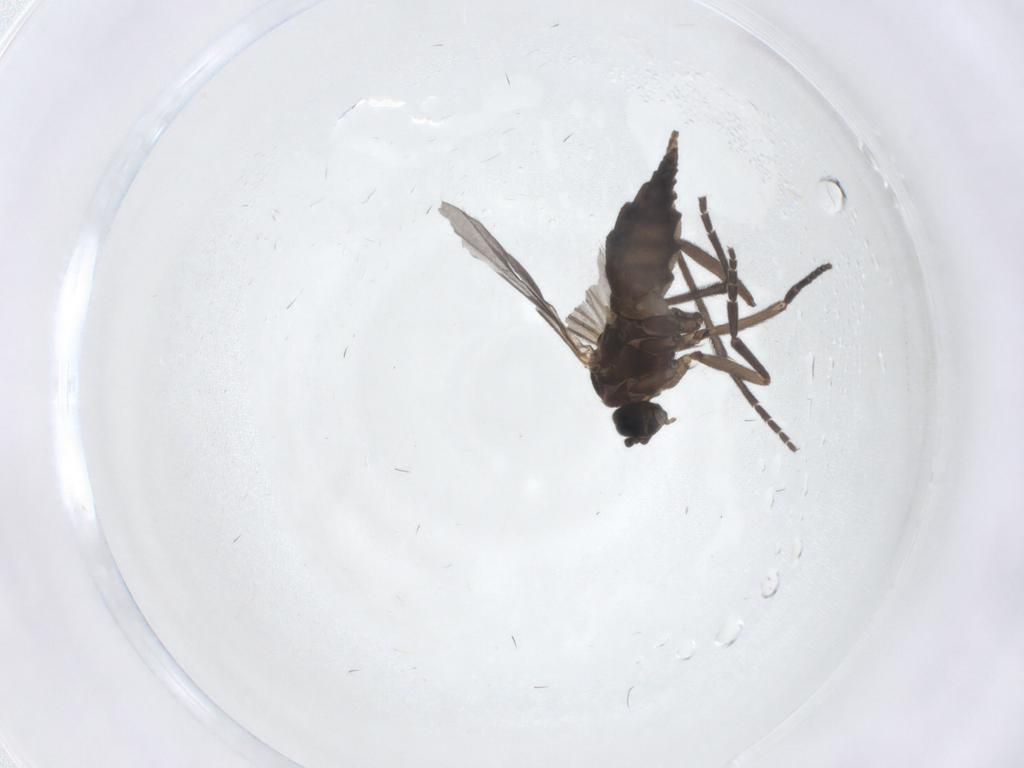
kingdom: Animalia
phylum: Arthropoda
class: Insecta
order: Diptera
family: Sciaridae
